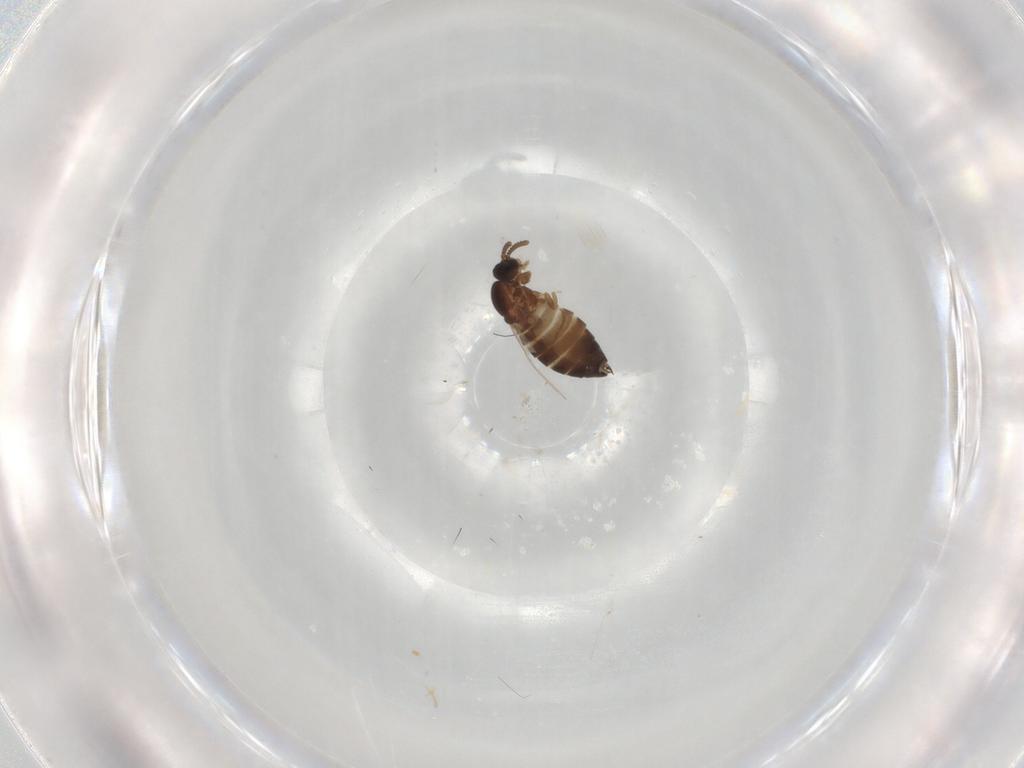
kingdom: Animalia
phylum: Arthropoda
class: Insecta
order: Diptera
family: Scatopsidae
